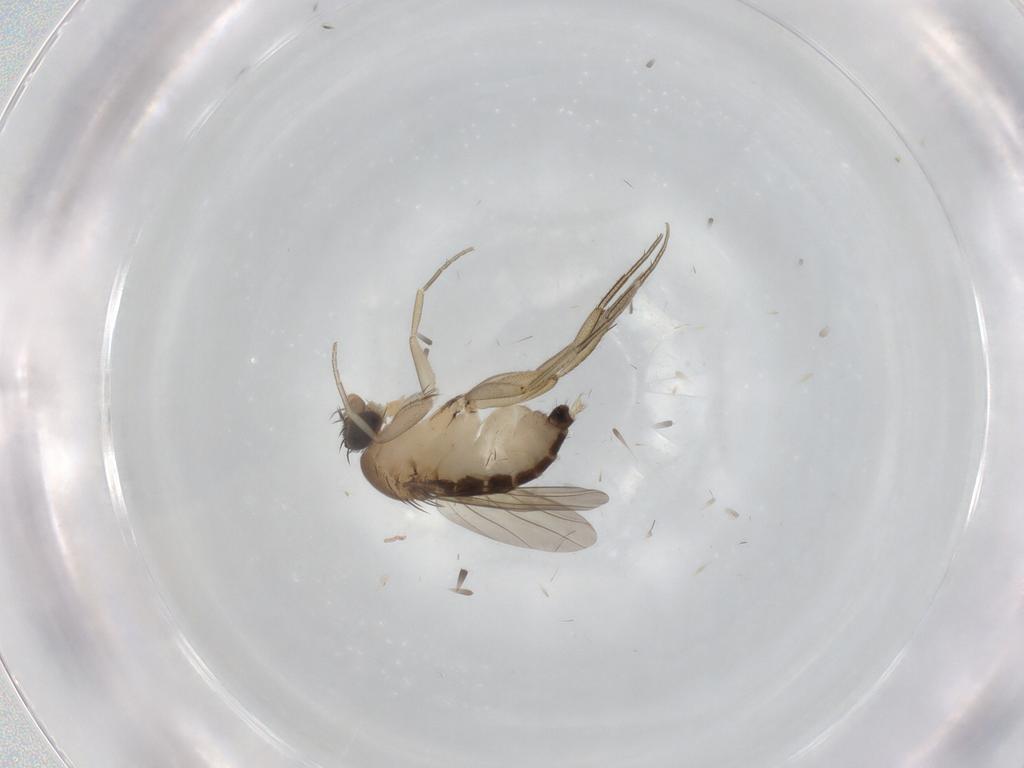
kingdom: Animalia
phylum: Arthropoda
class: Insecta
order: Diptera
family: Phoridae
